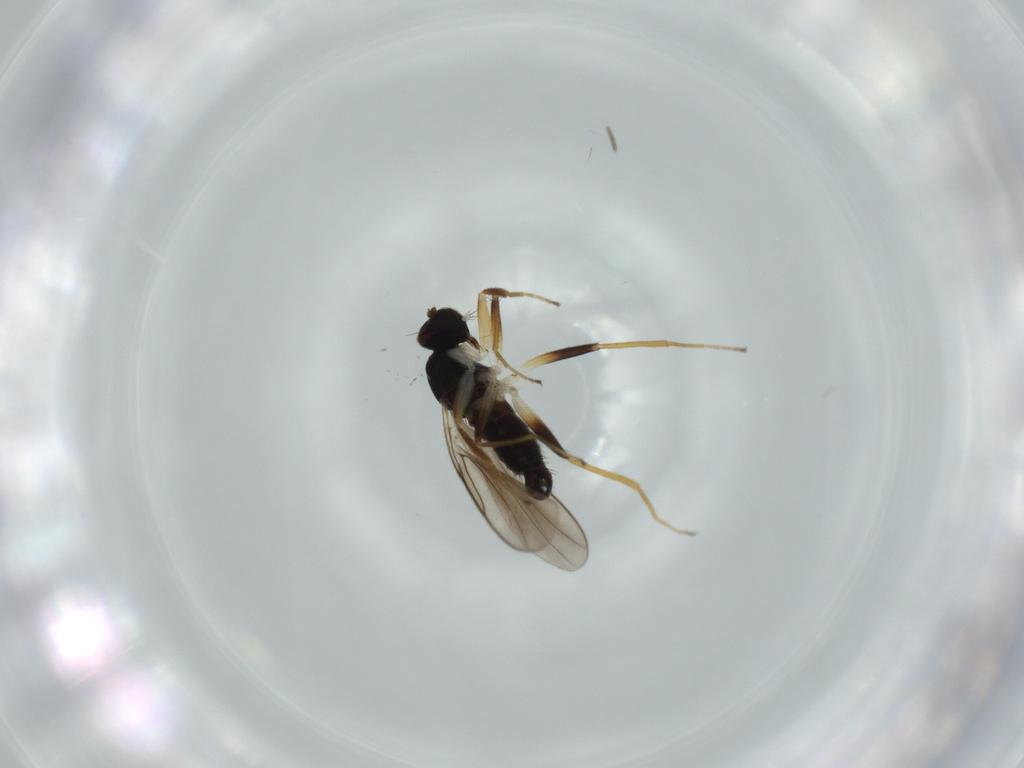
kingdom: Animalia
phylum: Arthropoda
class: Insecta
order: Diptera
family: Hybotidae
